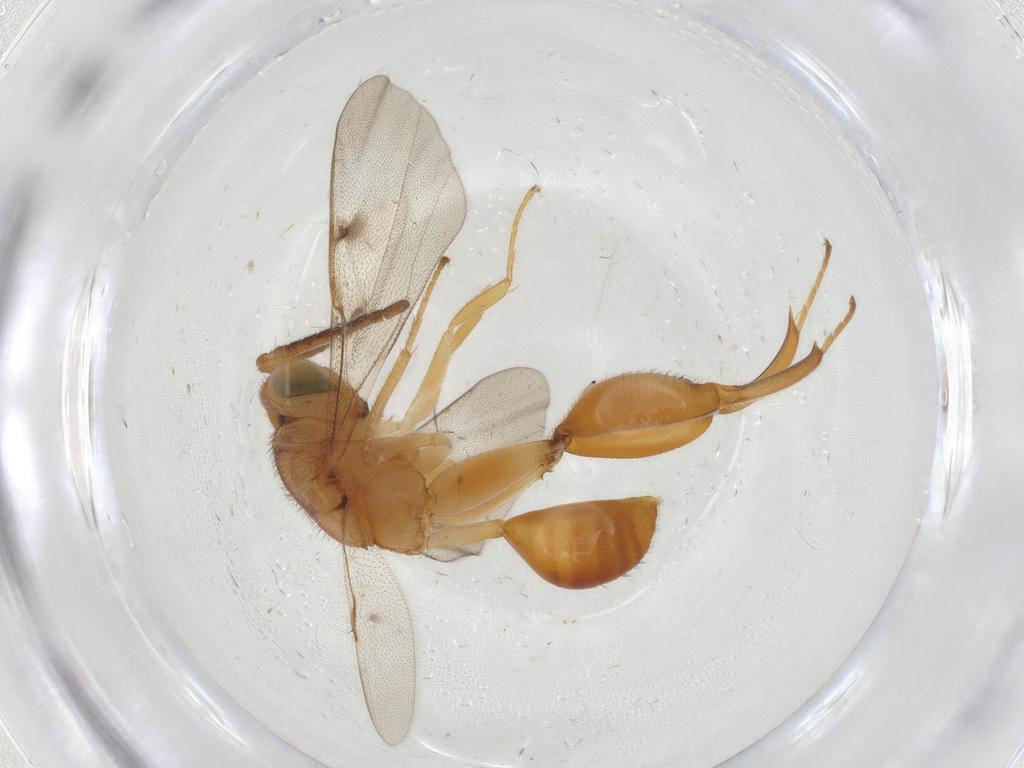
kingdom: Animalia
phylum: Arthropoda
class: Insecta
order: Hymenoptera
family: Chalcididae
